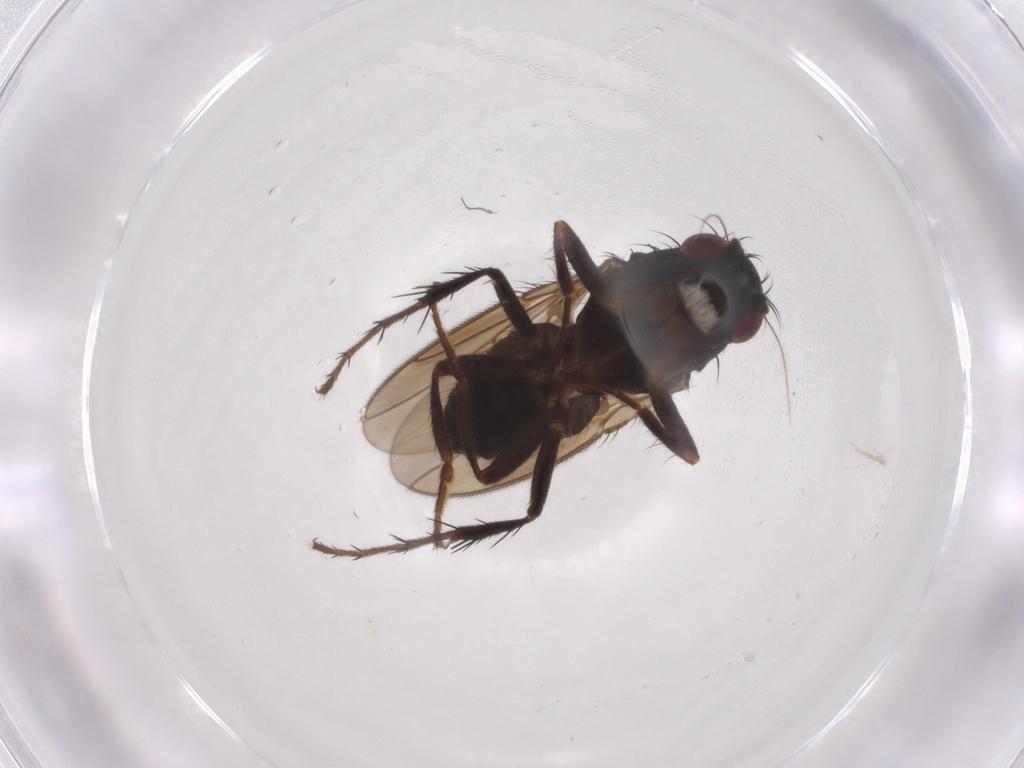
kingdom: Animalia
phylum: Arthropoda
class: Insecta
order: Diptera
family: Sphaeroceridae
